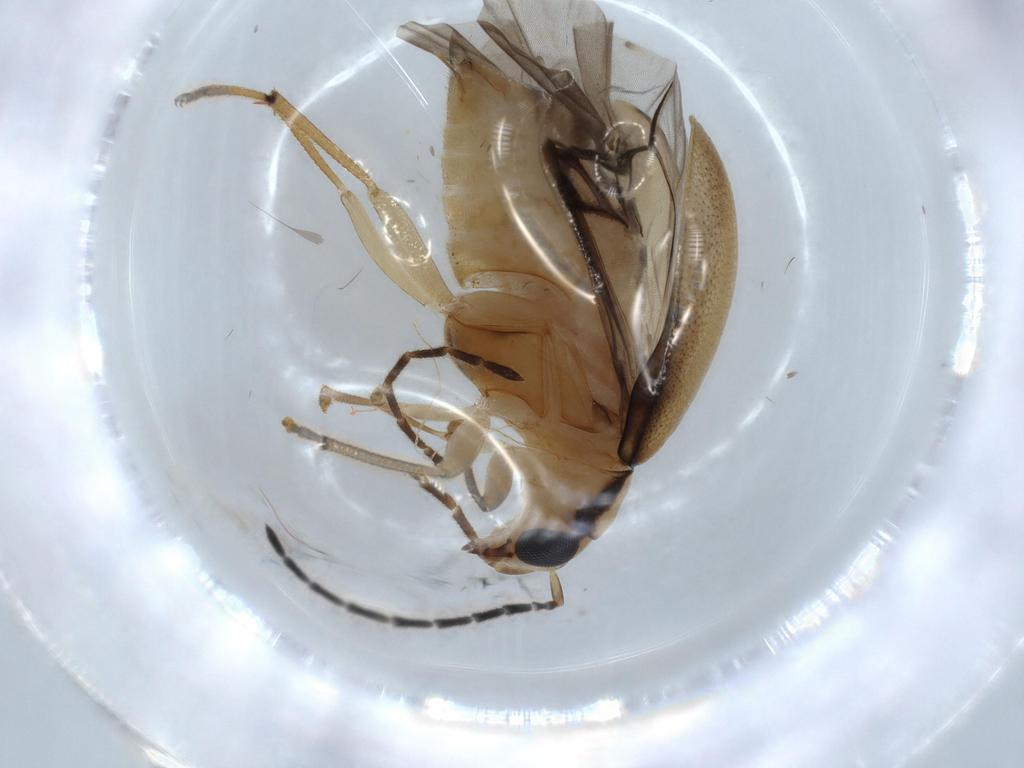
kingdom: Animalia
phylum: Arthropoda
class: Insecta
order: Coleoptera
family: Chrysomelidae
